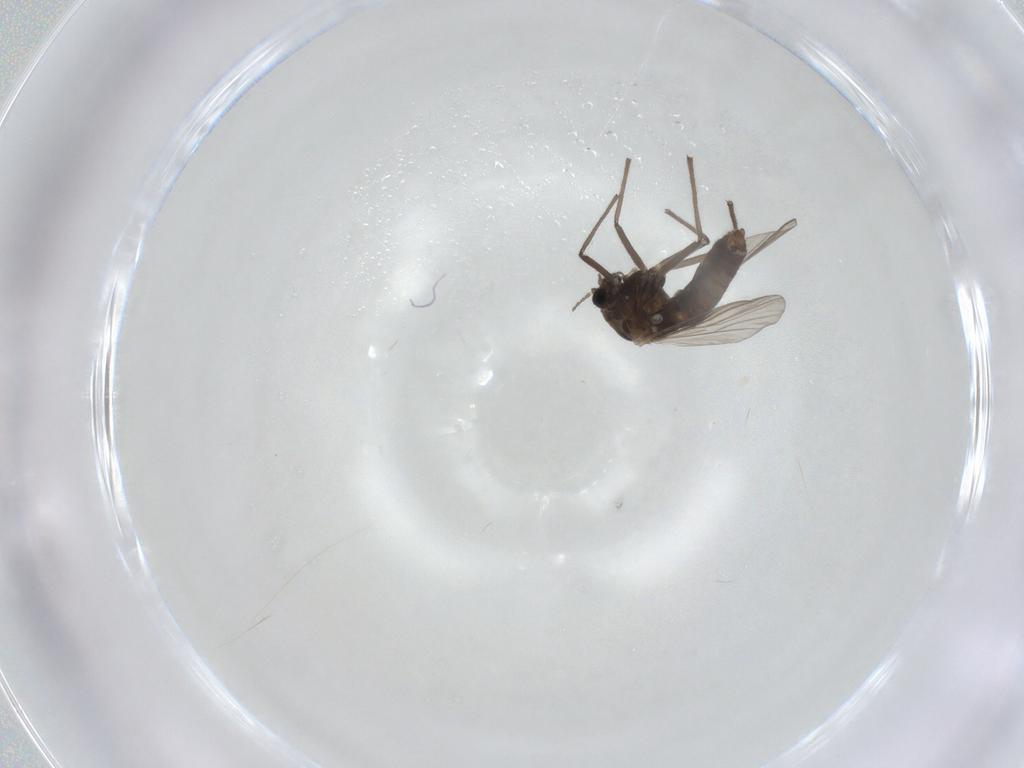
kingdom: Animalia
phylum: Arthropoda
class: Insecta
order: Diptera
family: Chironomidae
